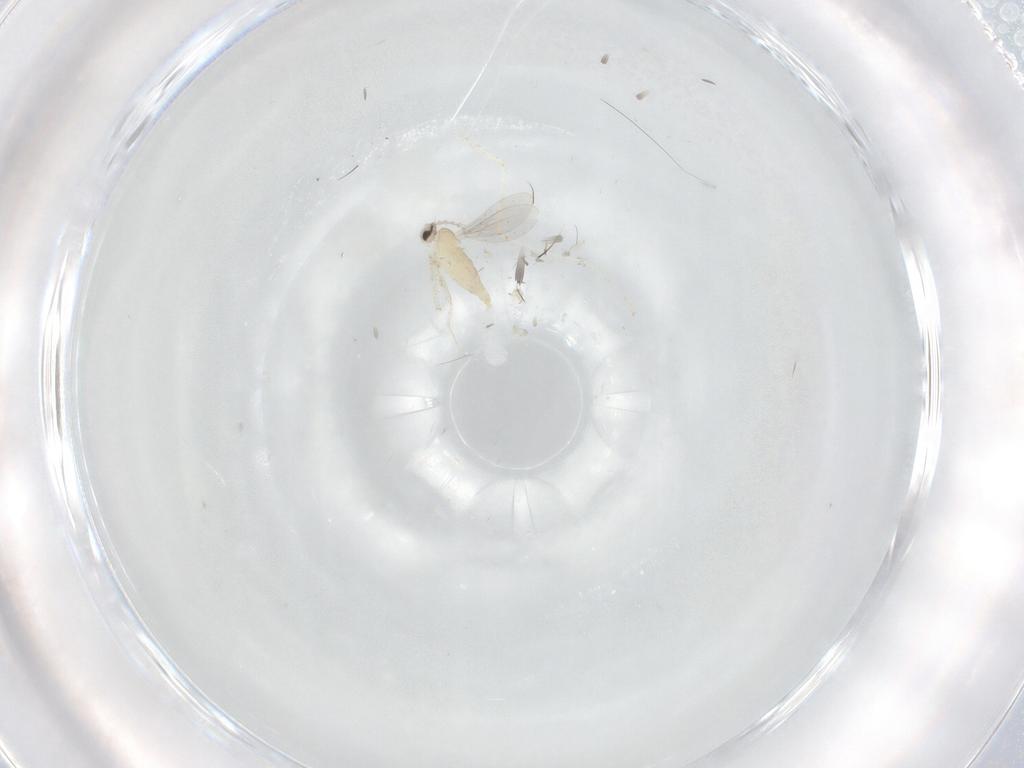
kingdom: Animalia
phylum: Arthropoda
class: Insecta
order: Diptera
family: Cecidomyiidae
